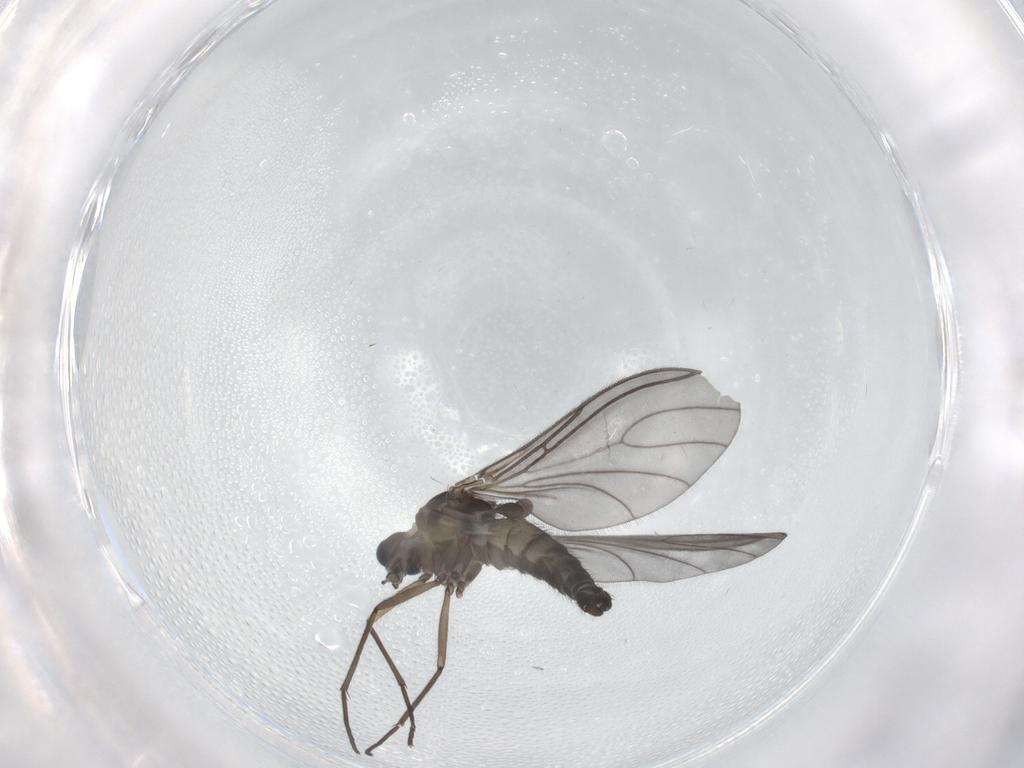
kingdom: Animalia
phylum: Arthropoda
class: Insecta
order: Diptera
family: Sciaridae
